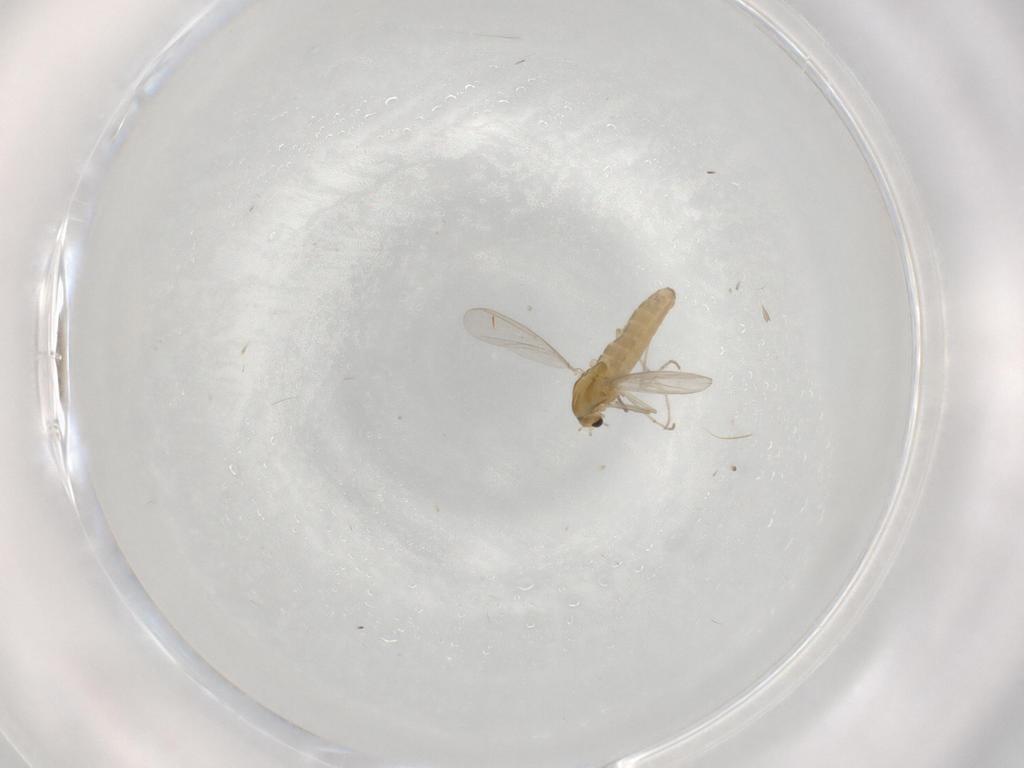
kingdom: Animalia
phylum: Arthropoda
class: Insecta
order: Diptera
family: Chironomidae
